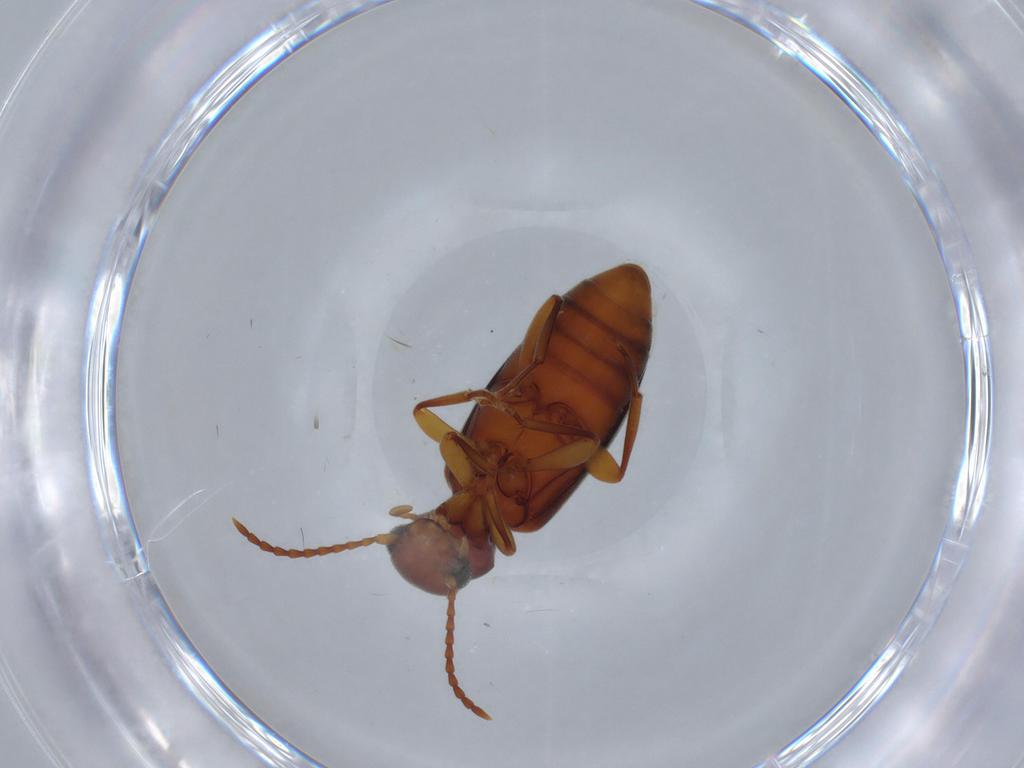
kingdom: Animalia
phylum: Arthropoda
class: Insecta
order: Coleoptera
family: Anthicidae
